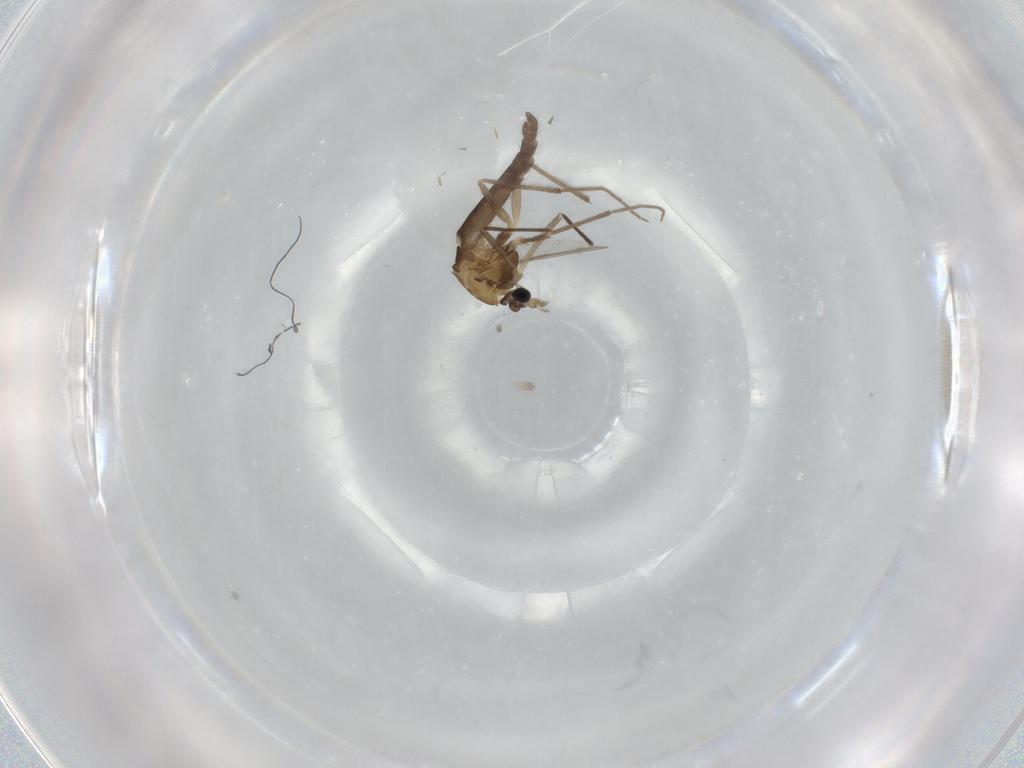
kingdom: Animalia
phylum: Arthropoda
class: Insecta
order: Diptera
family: Chironomidae
